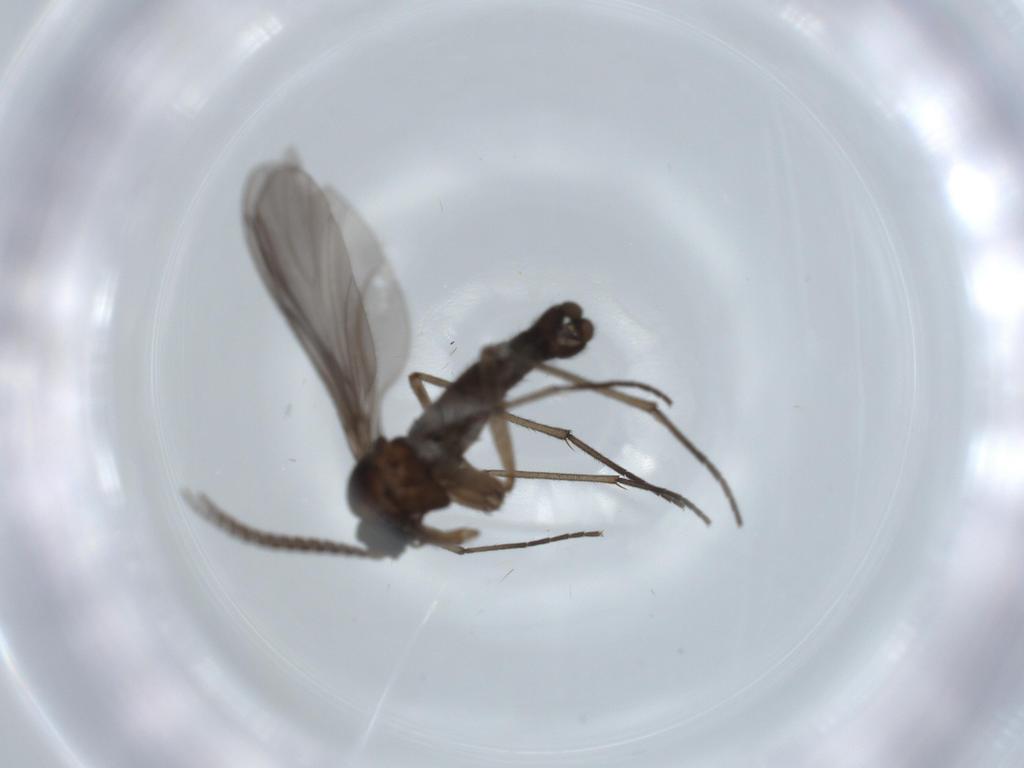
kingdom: Animalia
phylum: Arthropoda
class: Insecta
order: Diptera
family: Sciaridae
